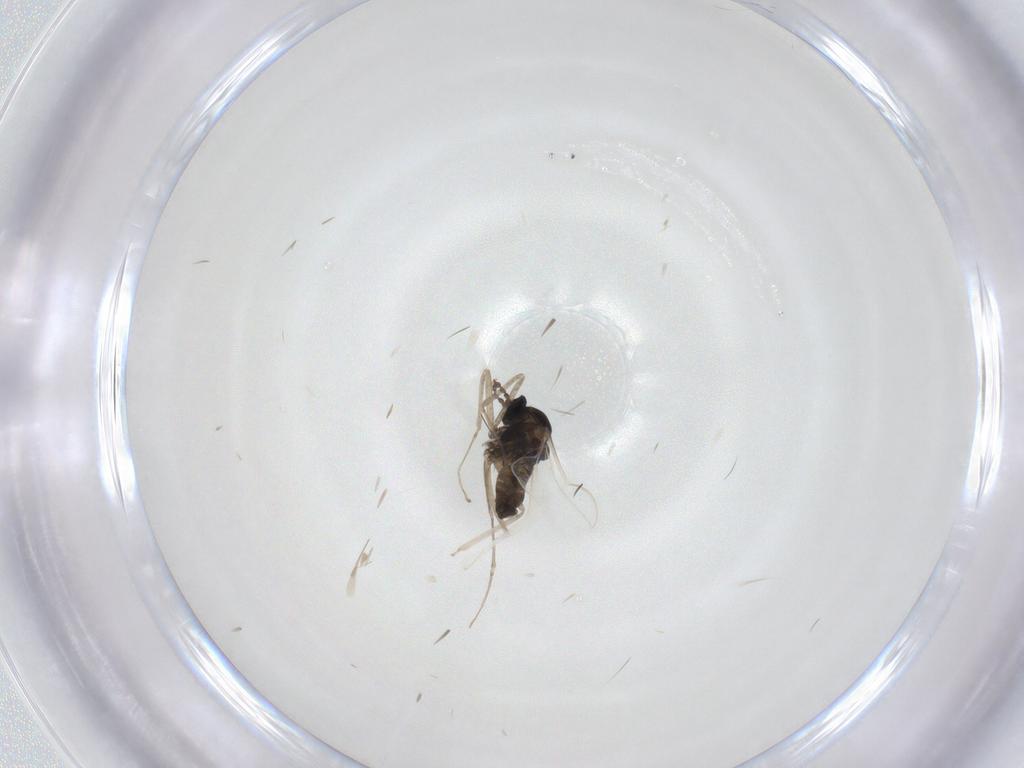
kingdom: Animalia
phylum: Arthropoda
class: Insecta
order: Diptera
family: Cecidomyiidae
